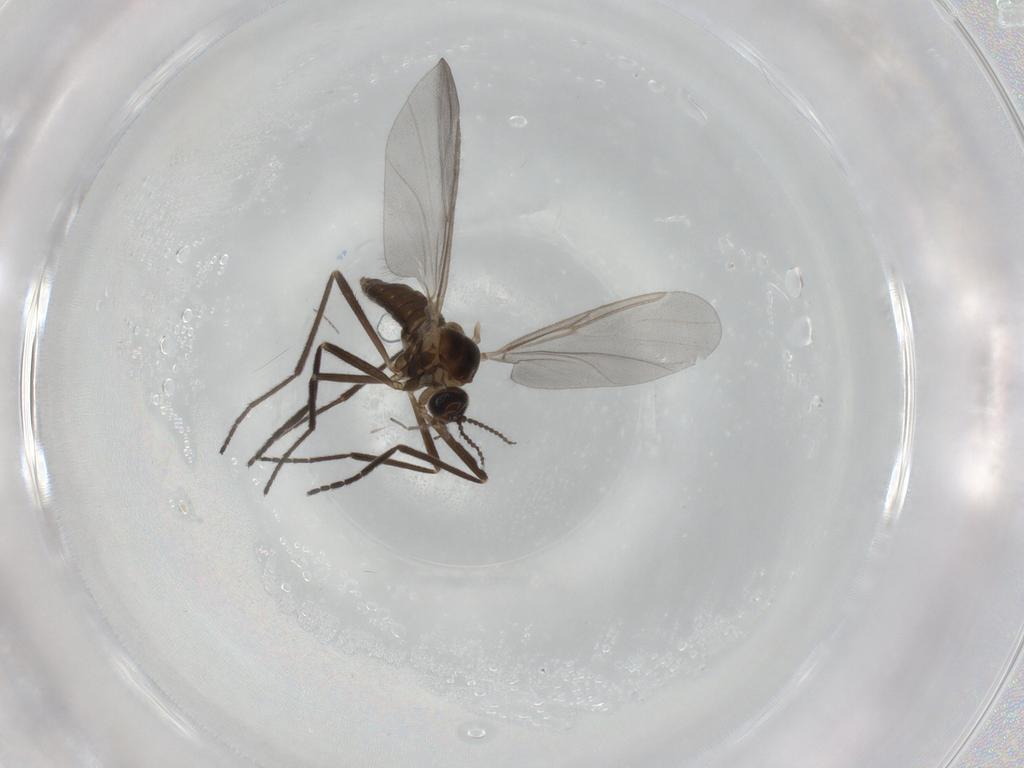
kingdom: Animalia
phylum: Arthropoda
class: Insecta
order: Diptera
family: Cecidomyiidae
